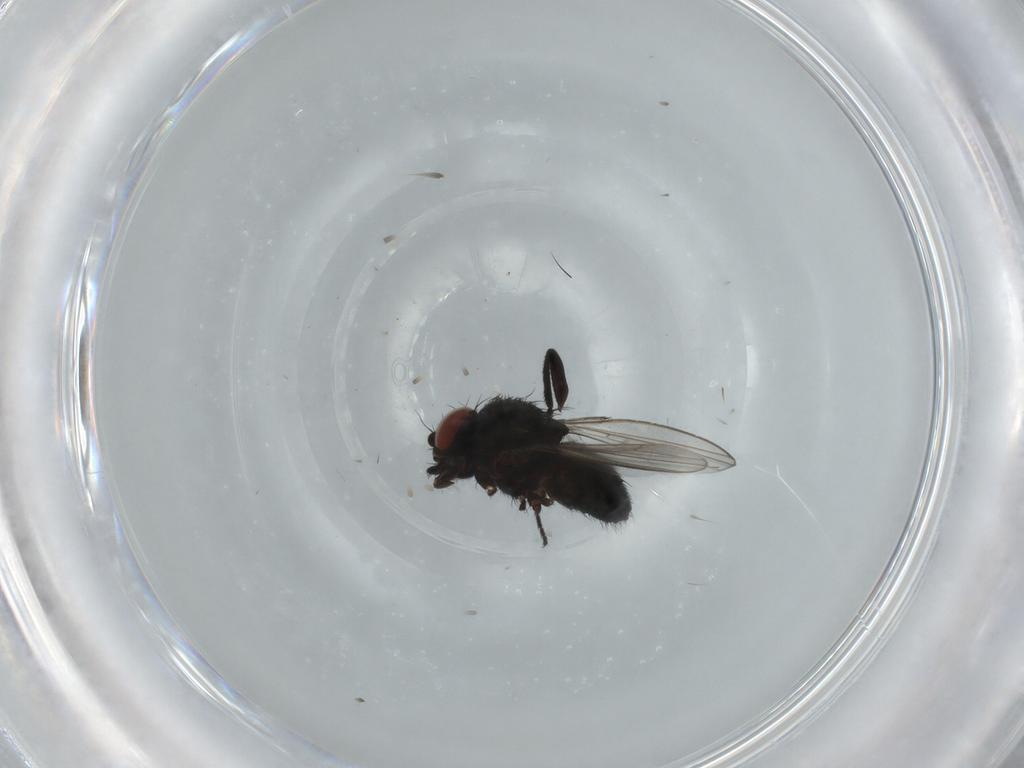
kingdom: Animalia
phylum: Arthropoda
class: Insecta
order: Diptera
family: Milichiidae
